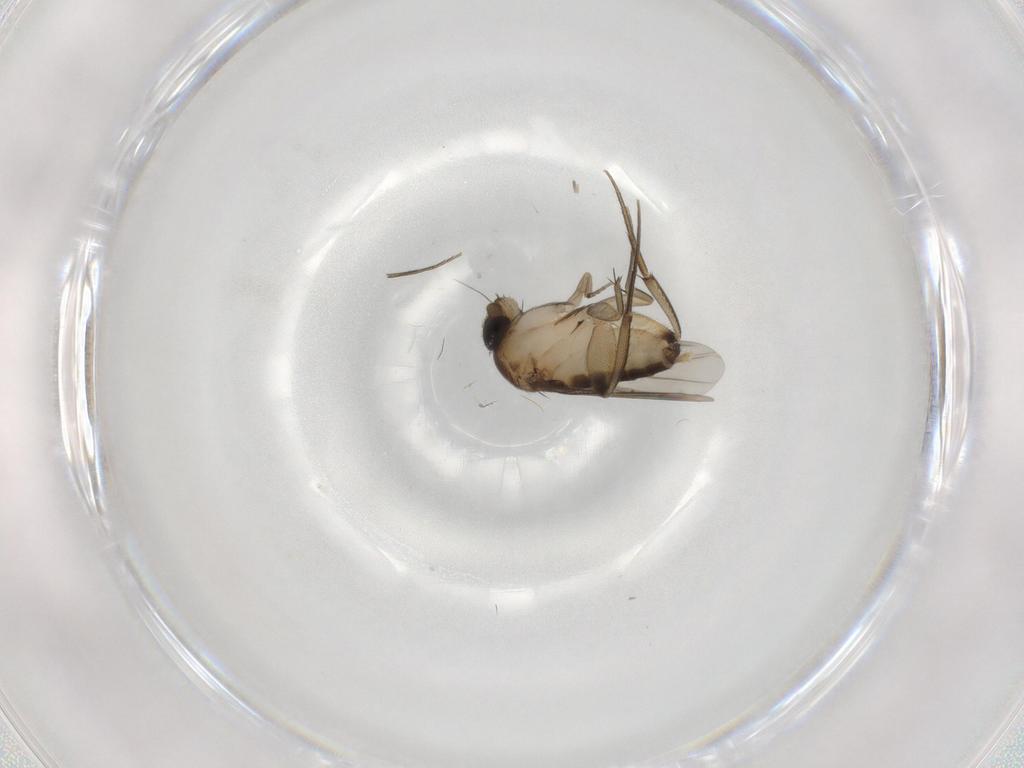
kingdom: Animalia
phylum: Arthropoda
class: Insecta
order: Diptera
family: Phoridae
